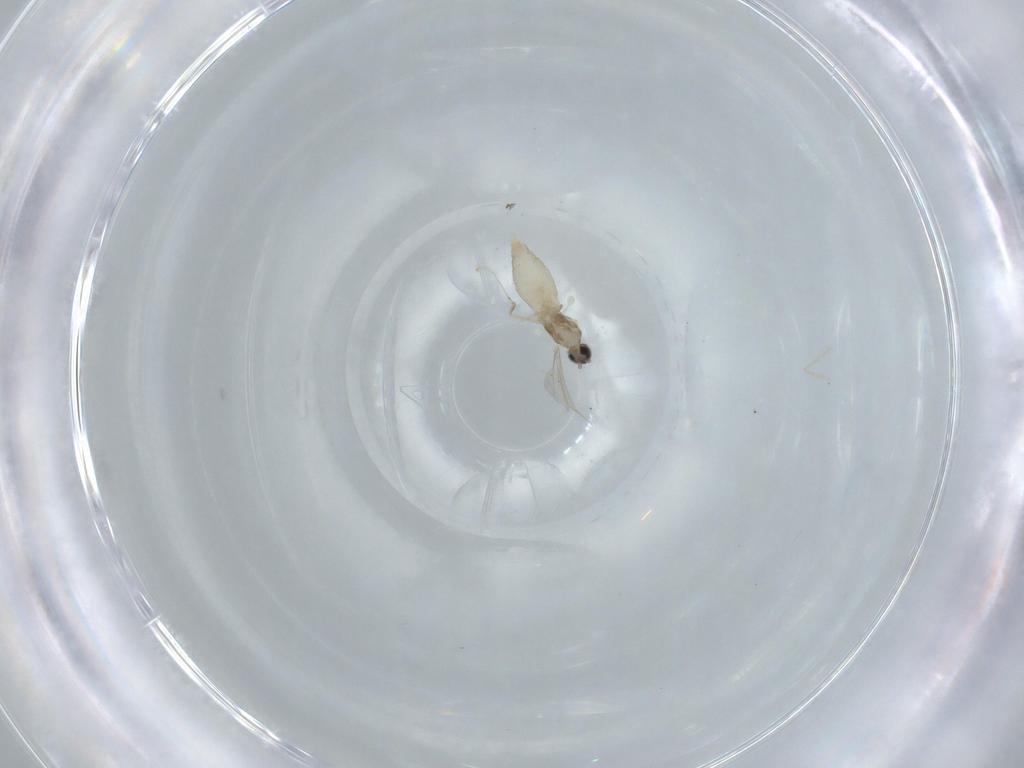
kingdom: Animalia
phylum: Arthropoda
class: Insecta
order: Diptera
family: Cecidomyiidae
